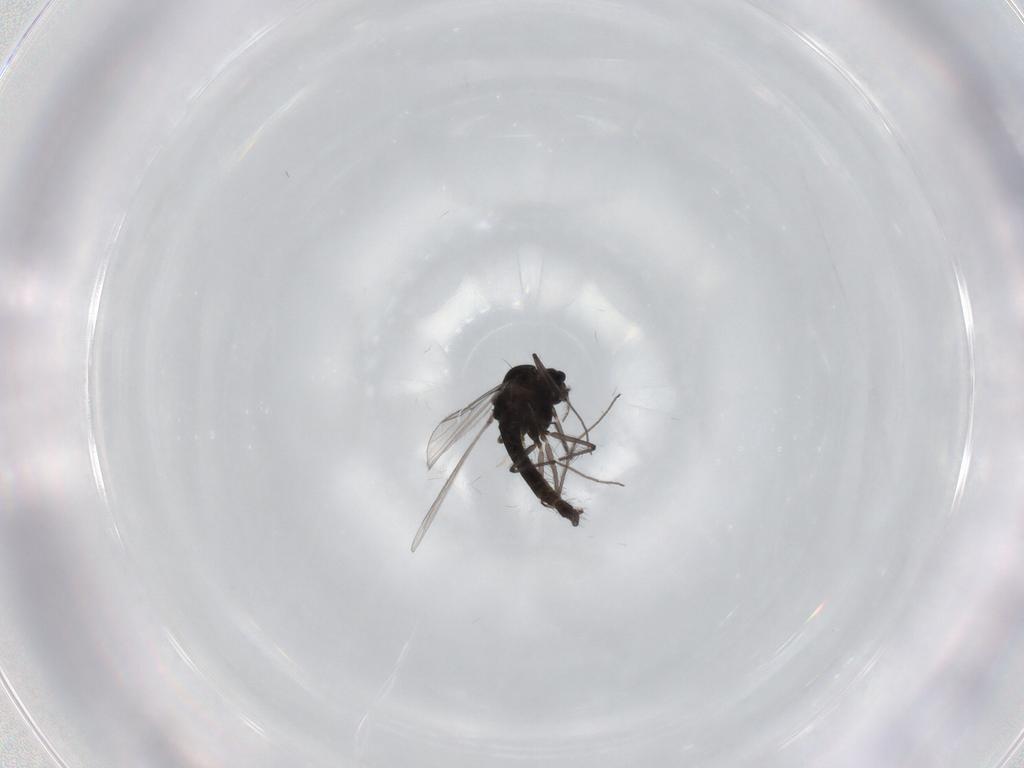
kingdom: Animalia
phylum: Arthropoda
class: Insecta
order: Diptera
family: Chironomidae
